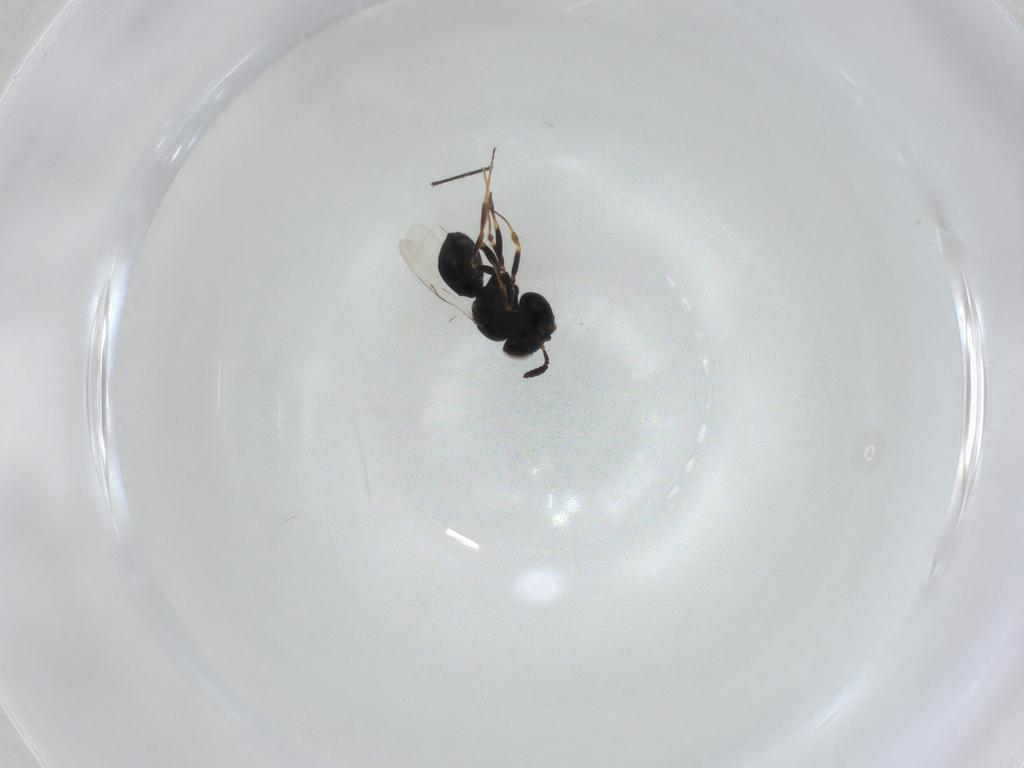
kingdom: Animalia
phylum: Arthropoda
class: Insecta
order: Hymenoptera
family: Scelionidae
